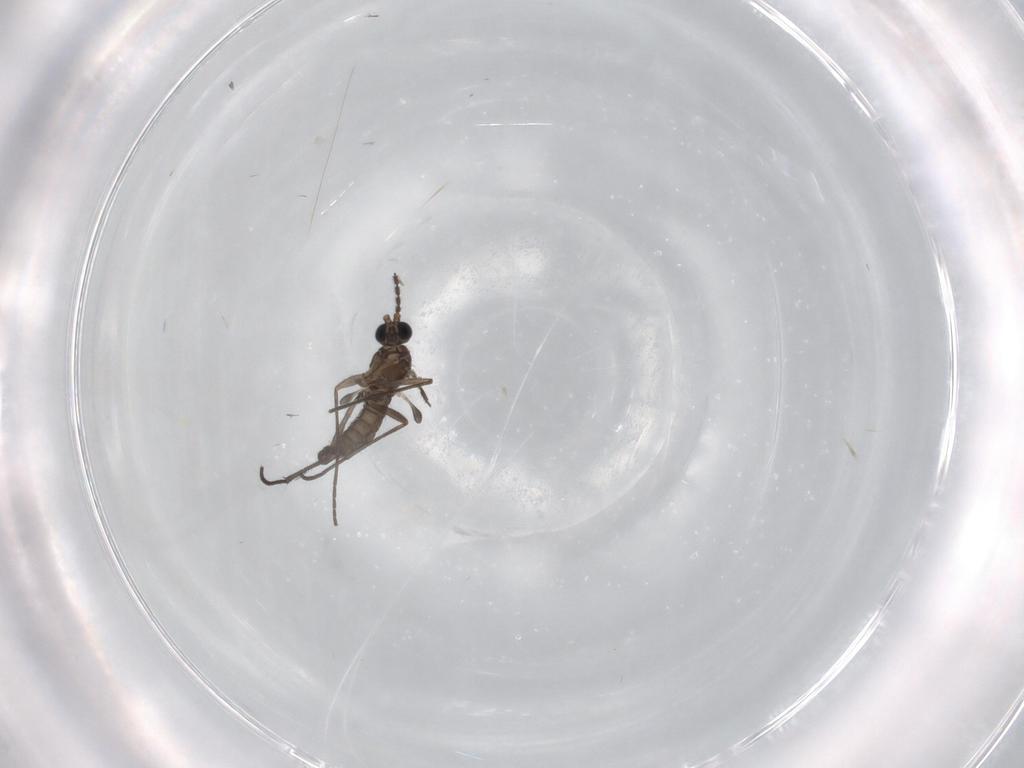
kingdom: Animalia
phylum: Arthropoda
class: Insecta
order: Diptera
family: Sciaridae
